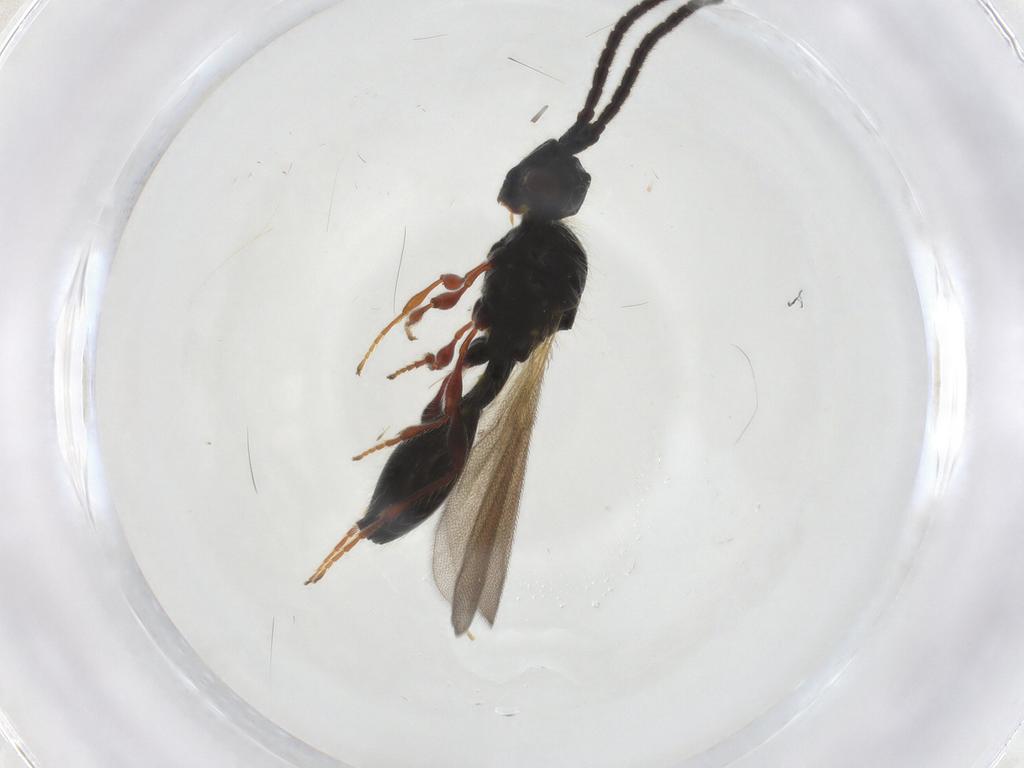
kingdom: Animalia
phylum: Arthropoda
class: Insecta
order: Hymenoptera
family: Diapriidae
